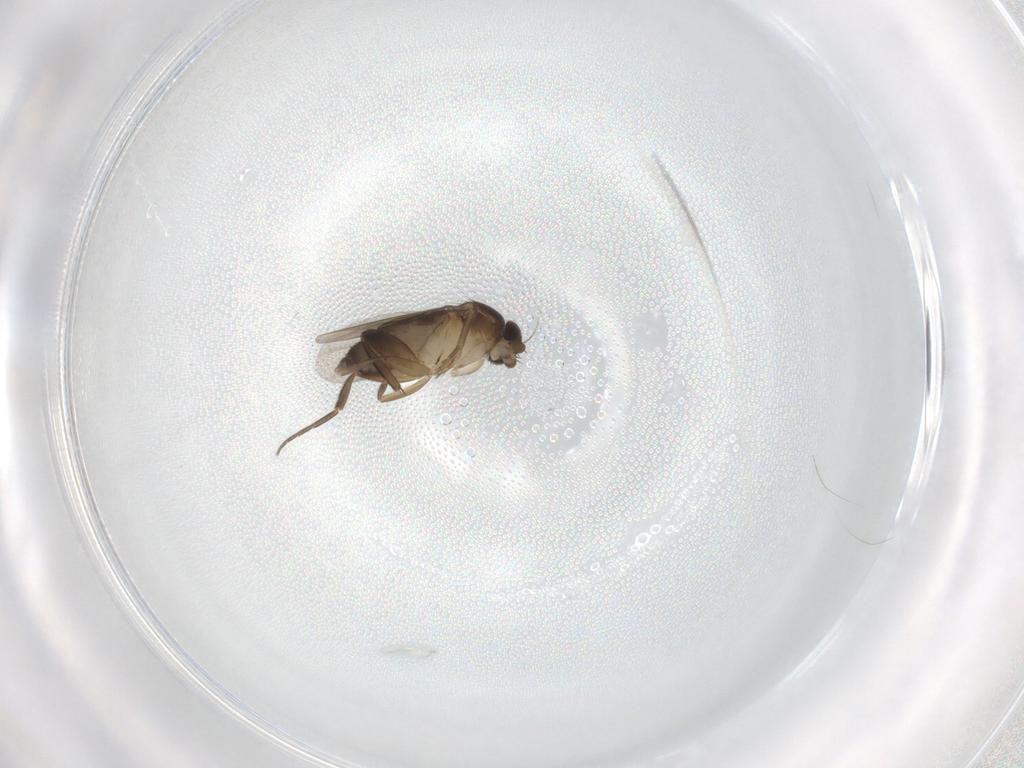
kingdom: Animalia
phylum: Arthropoda
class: Insecta
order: Diptera
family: Phoridae
